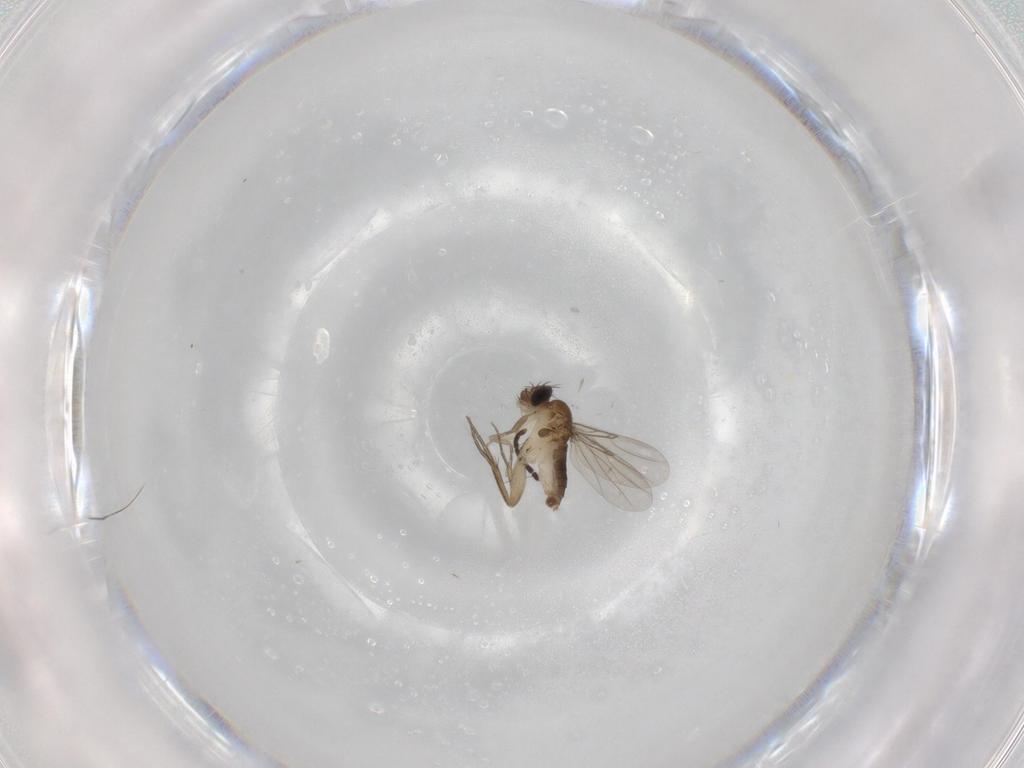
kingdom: Animalia
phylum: Arthropoda
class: Insecta
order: Diptera
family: Phoridae
